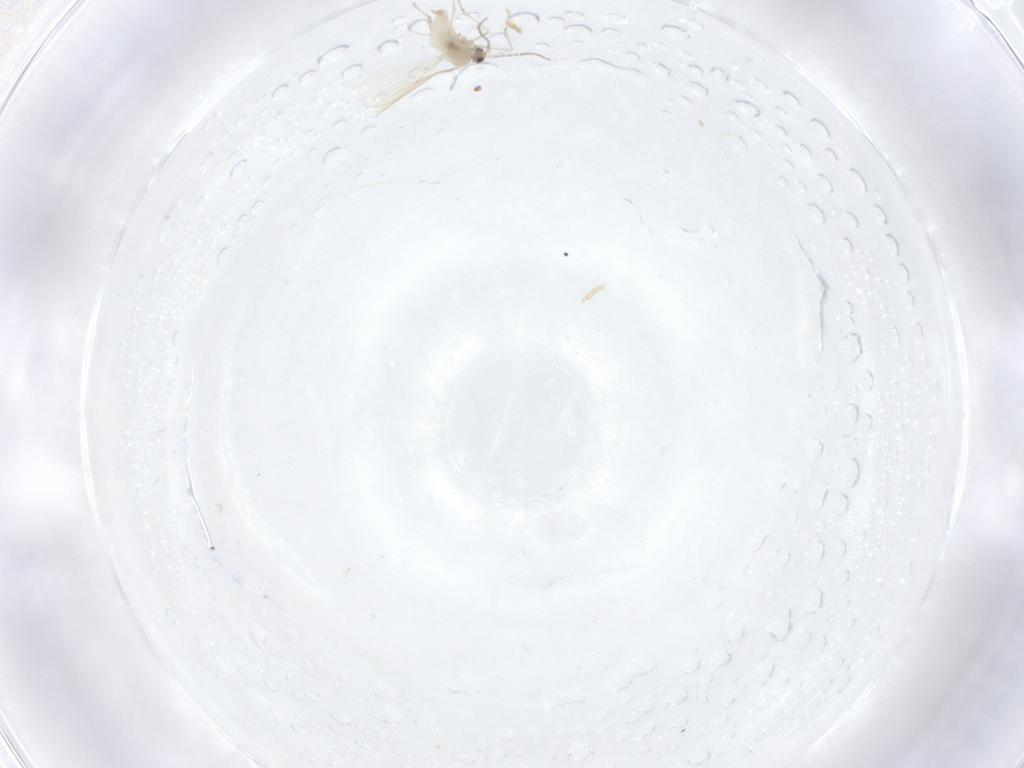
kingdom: Animalia
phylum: Arthropoda
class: Insecta
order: Diptera
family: Cecidomyiidae
